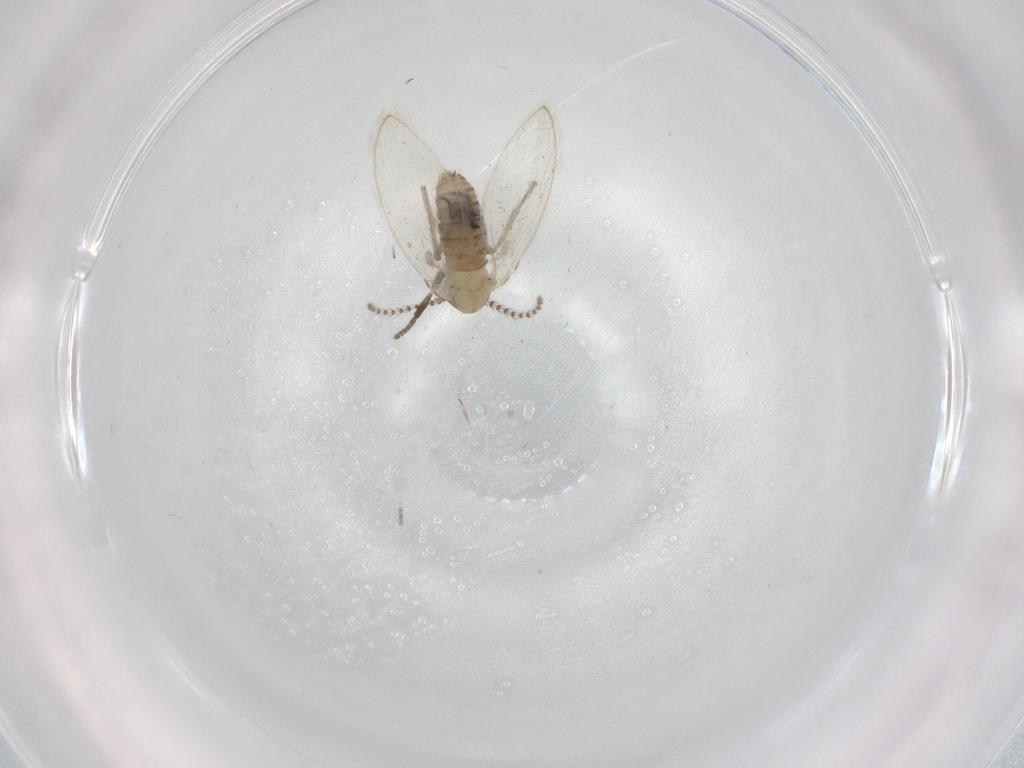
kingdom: Animalia
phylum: Arthropoda
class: Insecta
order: Diptera
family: Psychodidae
